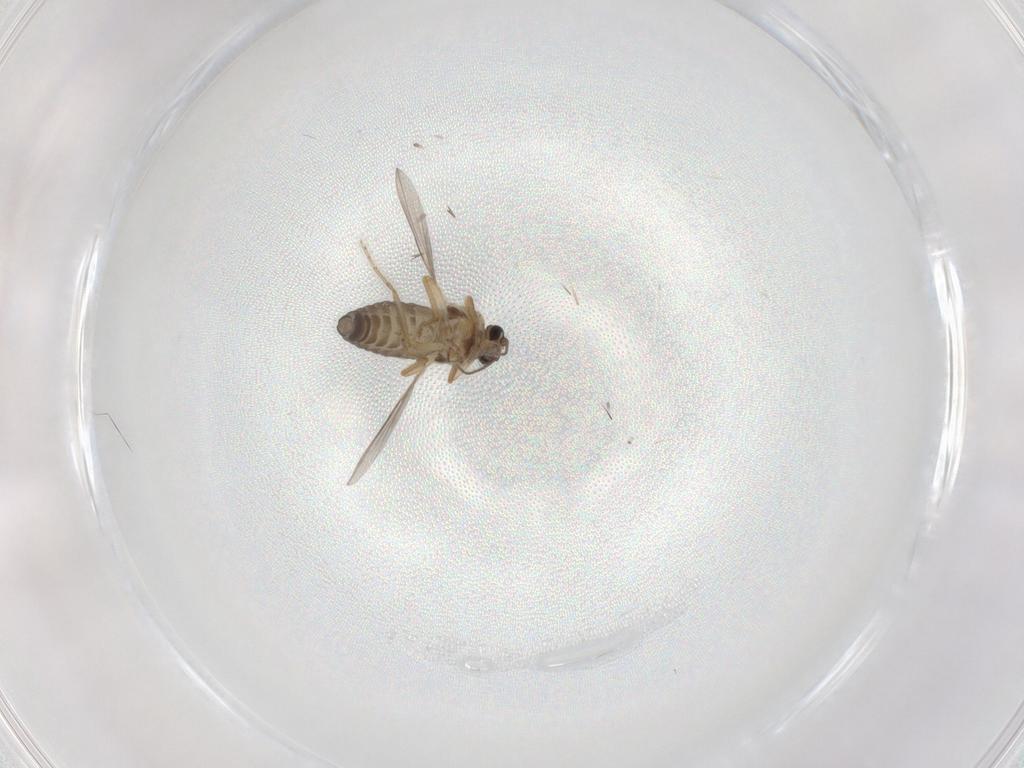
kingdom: Animalia
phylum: Arthropoda
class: Insecta
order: Diptera
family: Ceratopogonidae
